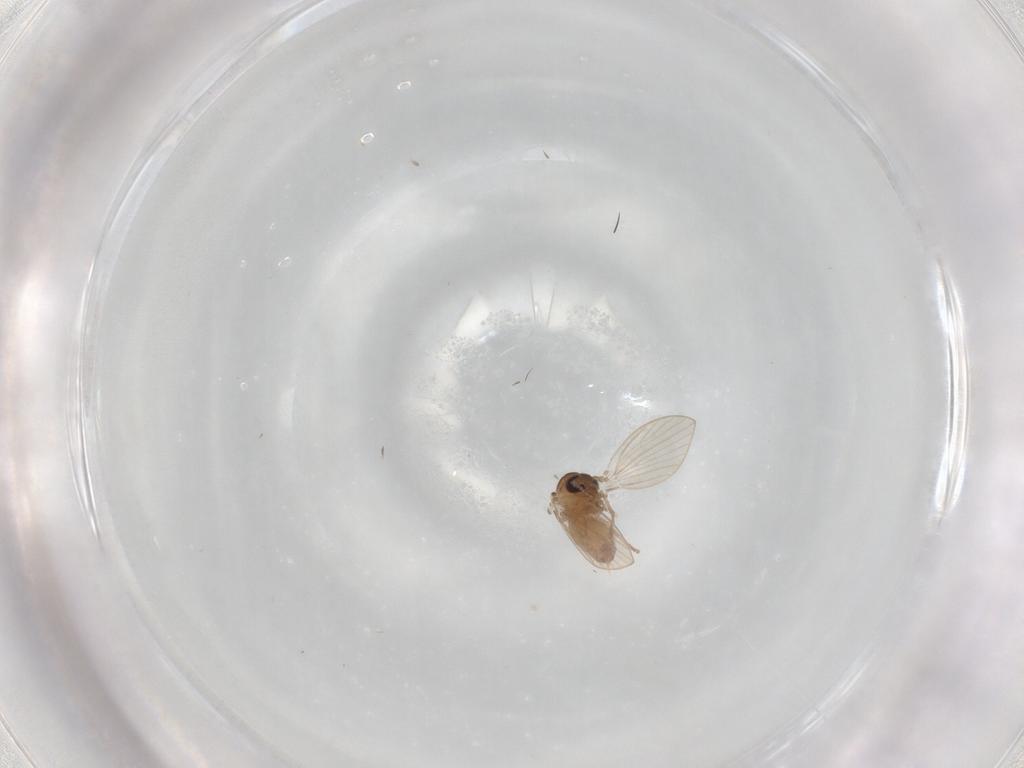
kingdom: Animalia
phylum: Arthropoda
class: Insecta
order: Diptera
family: Psychodidae
